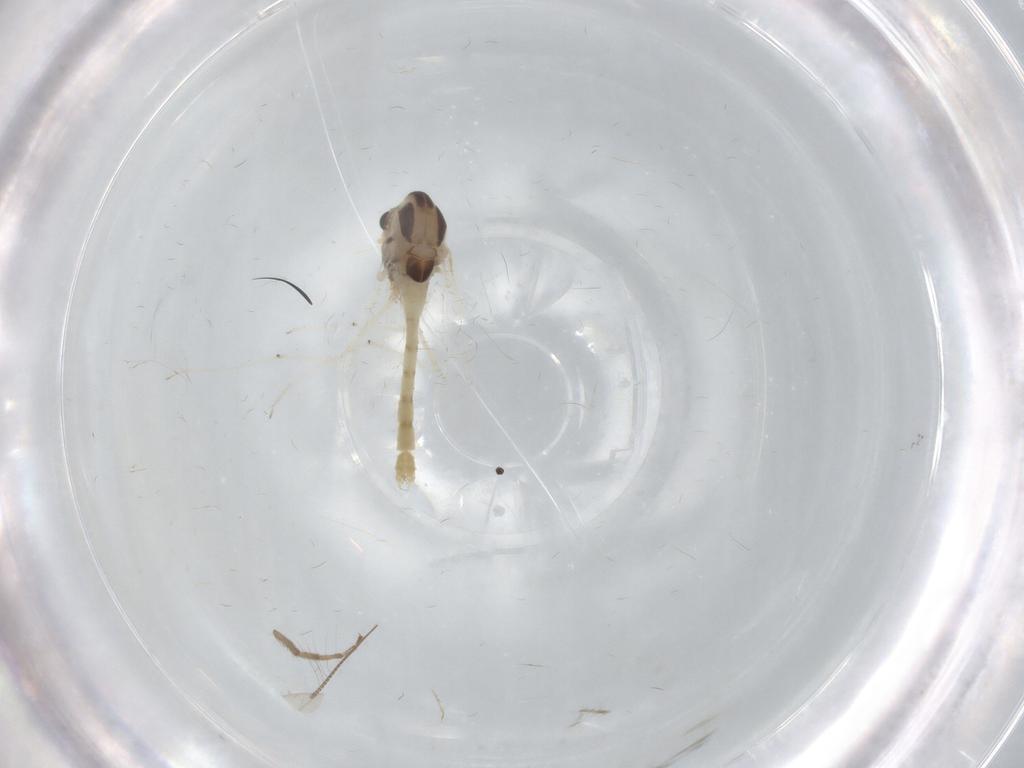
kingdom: Animalia
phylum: Arthropoda
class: Insecta
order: Diptera
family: Chironomidae
